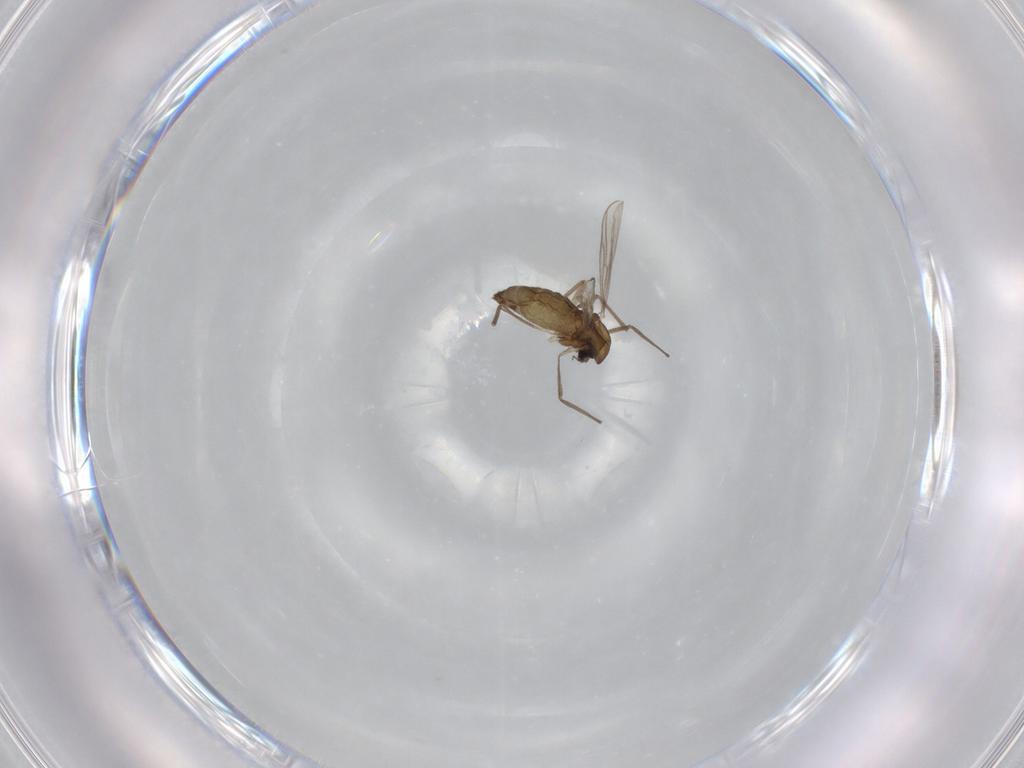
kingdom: Animalia
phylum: Arthropoda
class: Insecta
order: Diptera
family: Chironomidae
